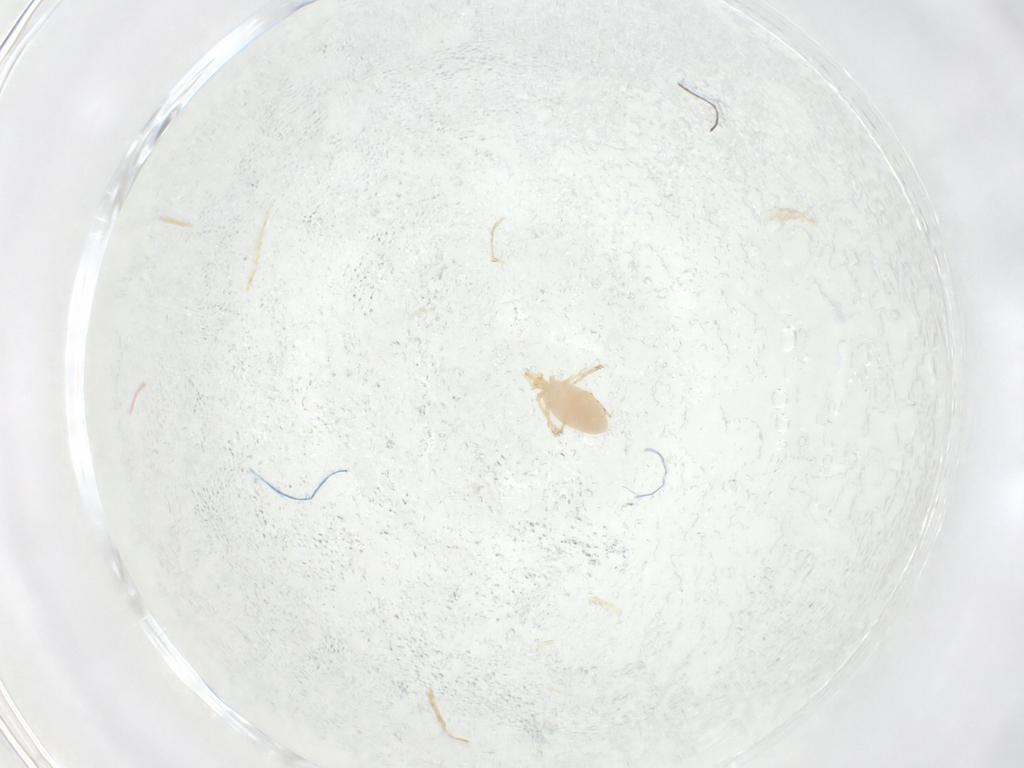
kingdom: Animalia
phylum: Arthropoda
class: Arachnida
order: Trombidiformes
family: Erythraeidae
